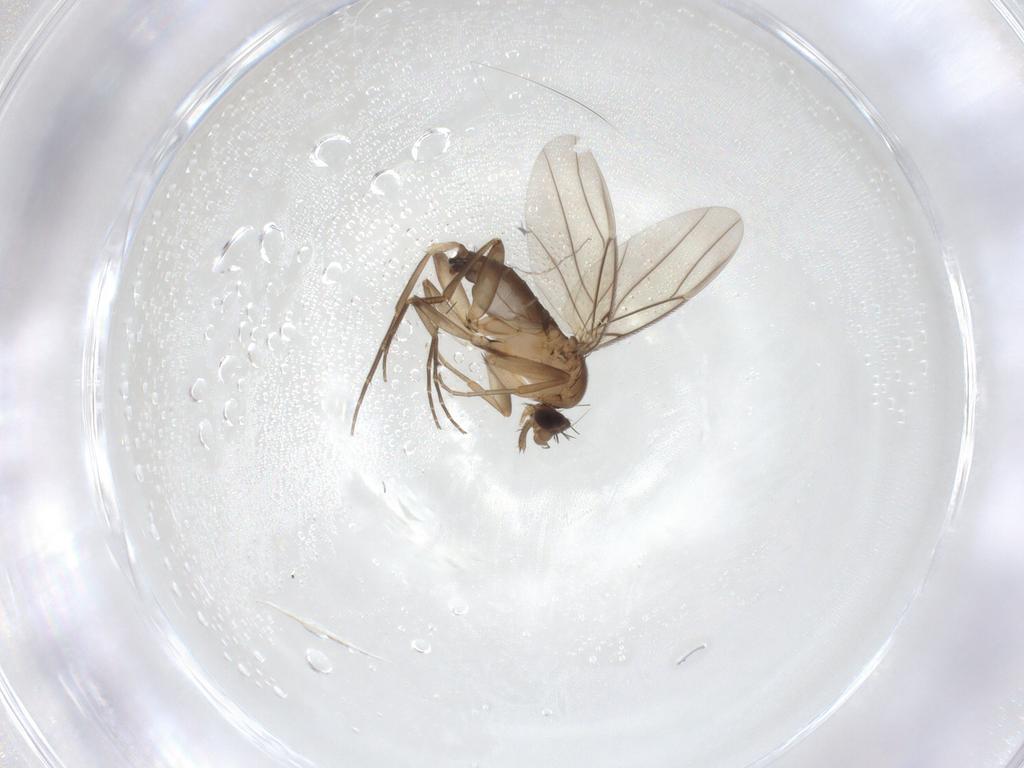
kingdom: Animalia
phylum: Arthropoda
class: Insecta
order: Diptera
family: Phoridae
